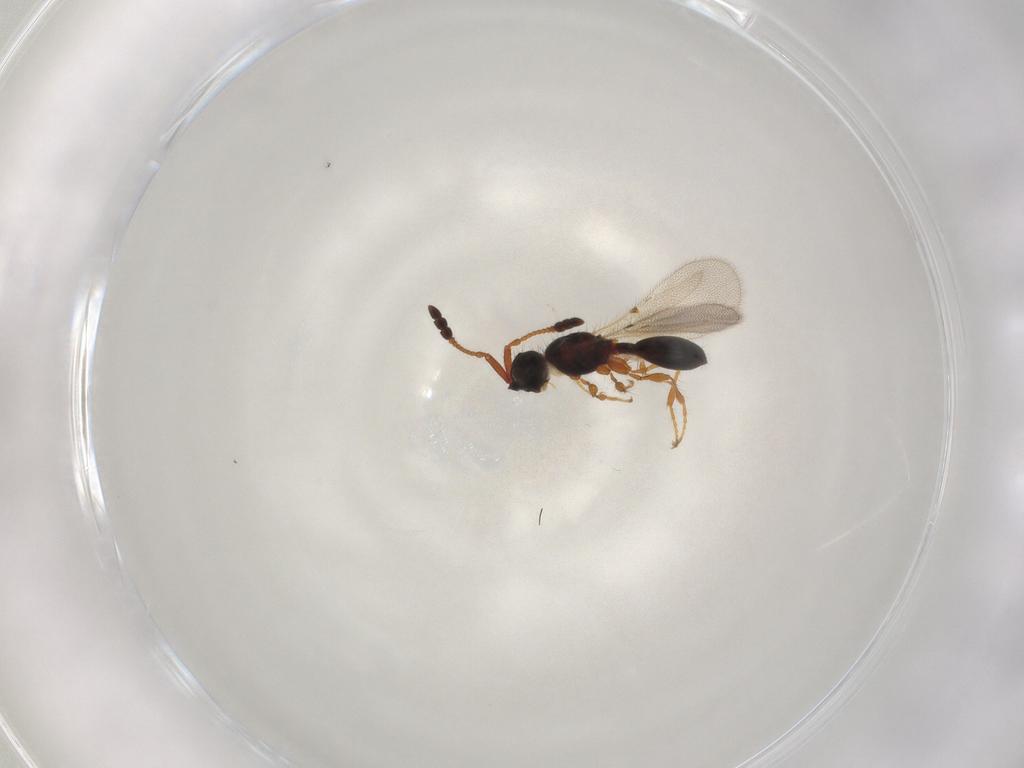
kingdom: Animalia
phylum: Arthropoda
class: Insecta
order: Hymenoptera
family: Diapriidae
